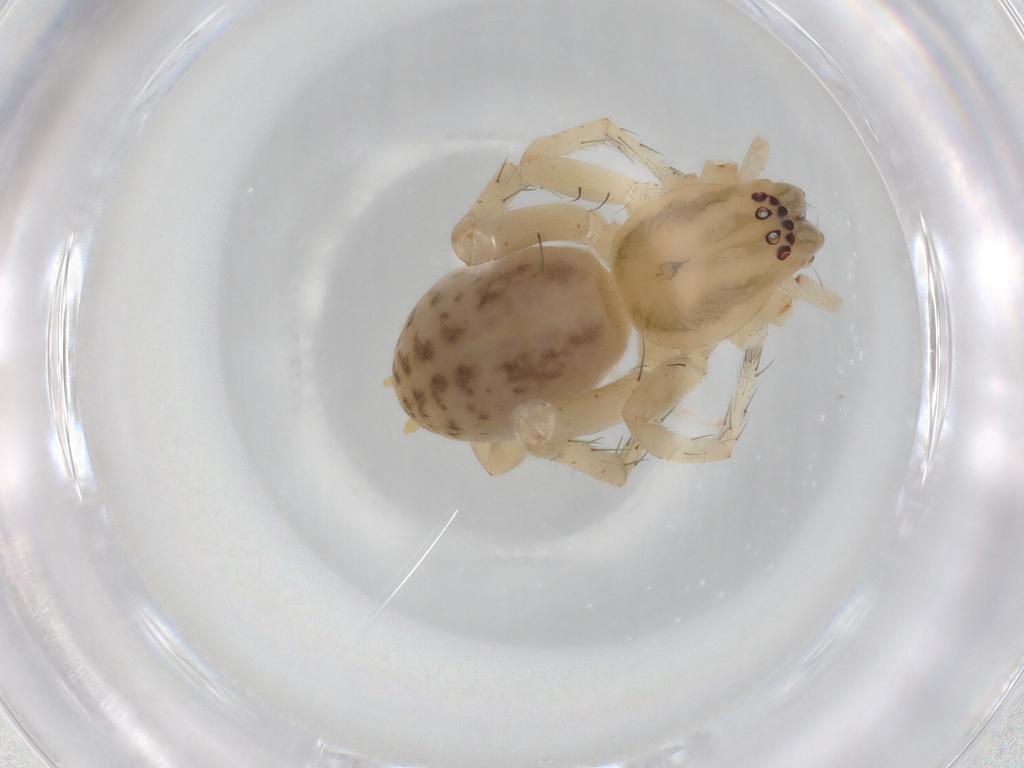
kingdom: Animalia
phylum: Arthropoda
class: Arachnida
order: Araneae
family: Anyphaenidae
